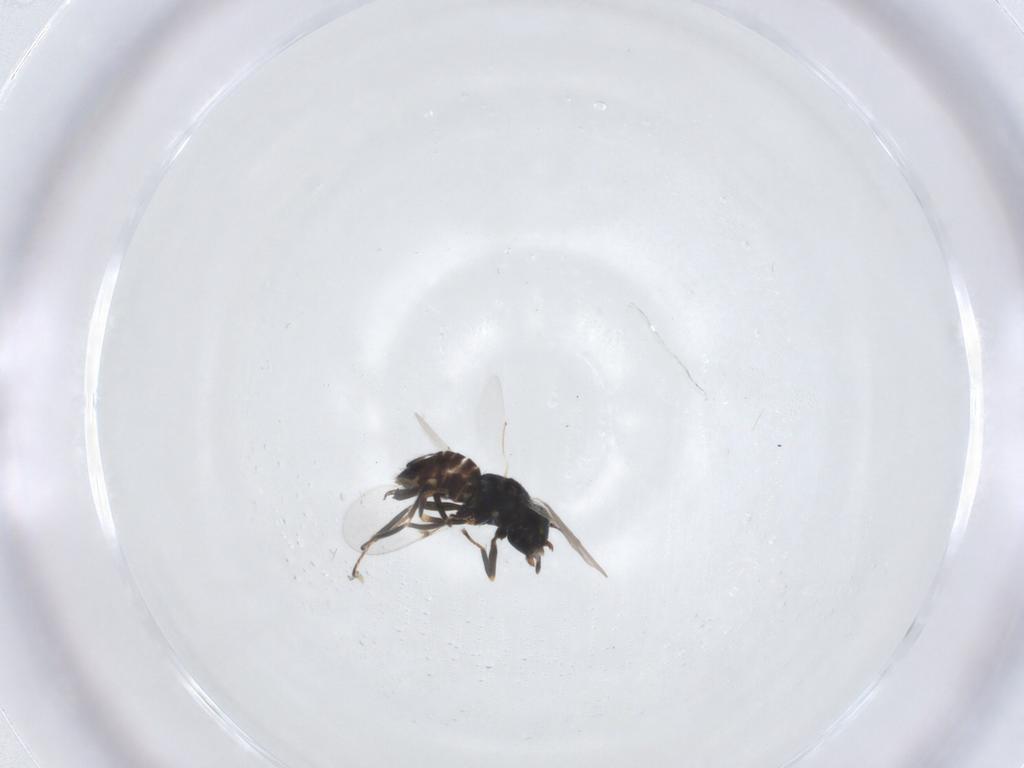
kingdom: Animalia
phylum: Arthropoda
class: Insecta
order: Hymenoptera
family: Encyrtidae
